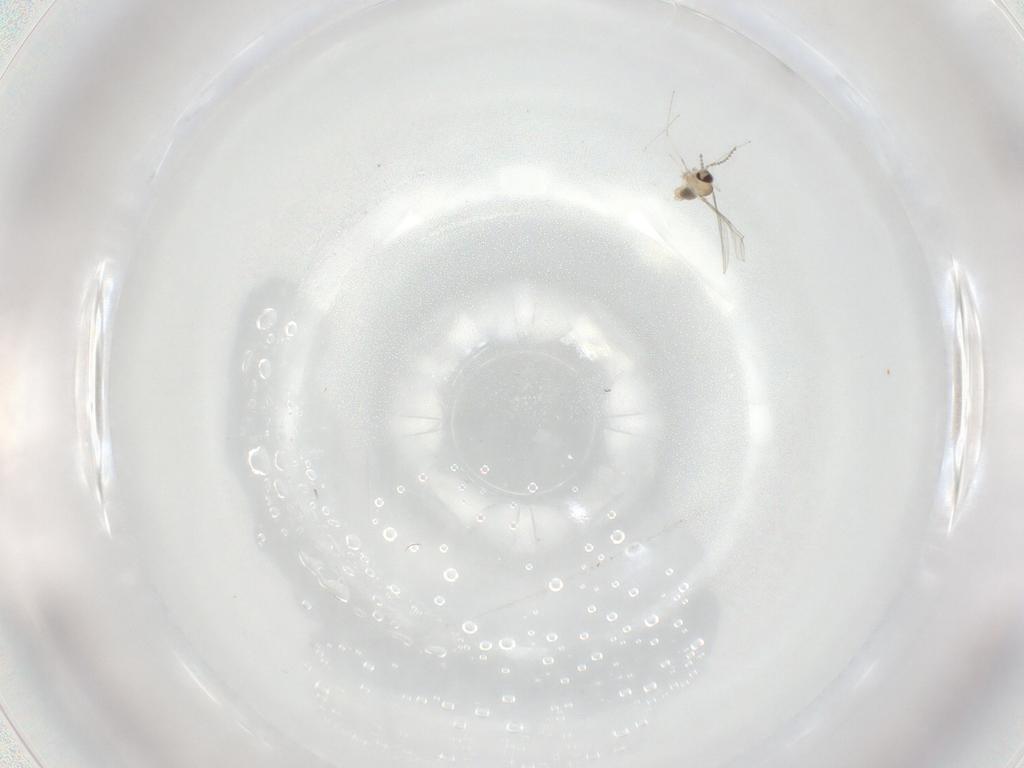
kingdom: Animalia
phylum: Arthropoda
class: Insecta
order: Diptera
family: Cecidomyiidae
